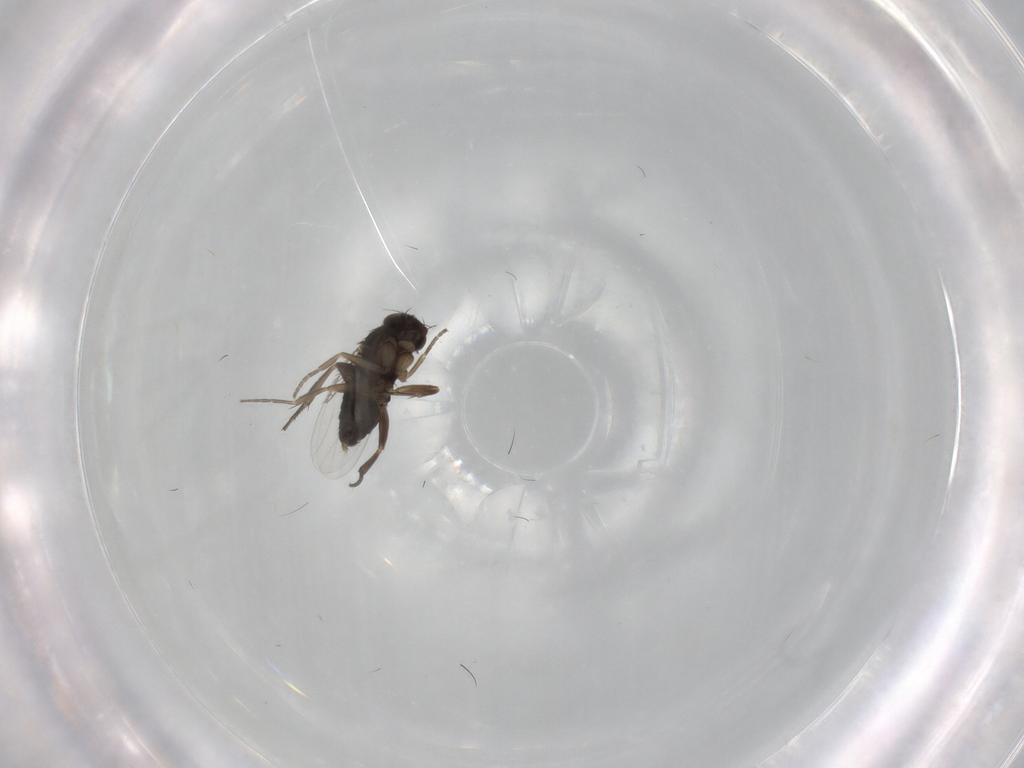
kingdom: Animalia
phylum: Arthropoda
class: Insecta
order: Diptera
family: Phoridae
